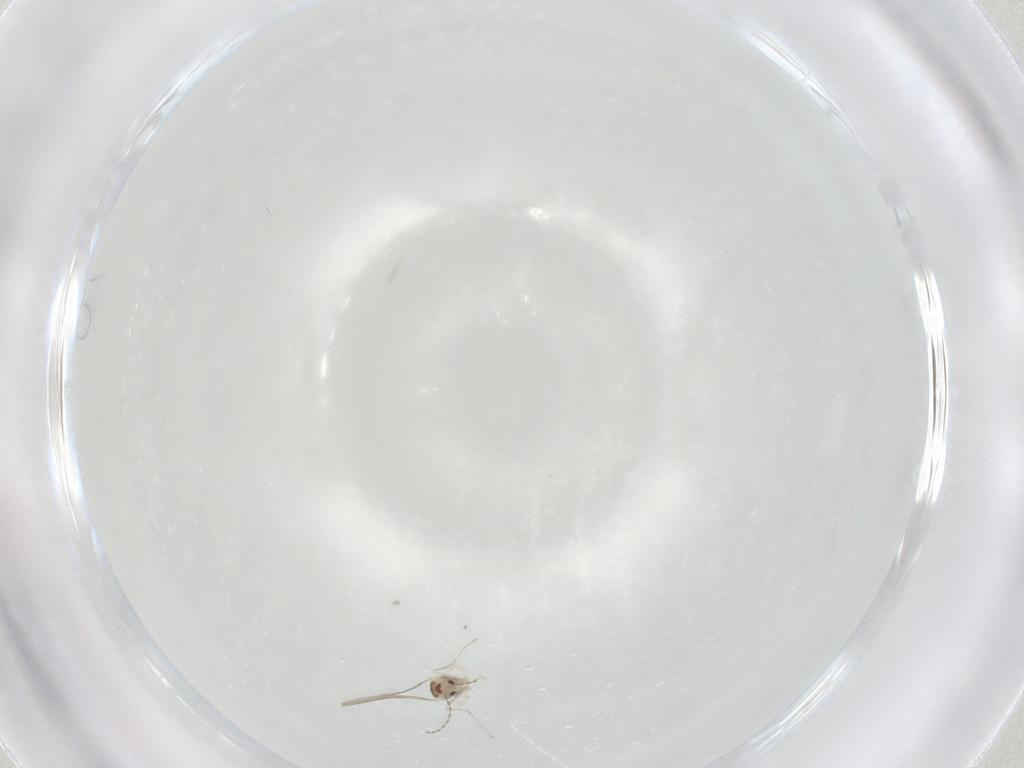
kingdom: Animalia
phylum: Arthropoda
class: Insecta
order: Diptera
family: Cecidomyiidae
